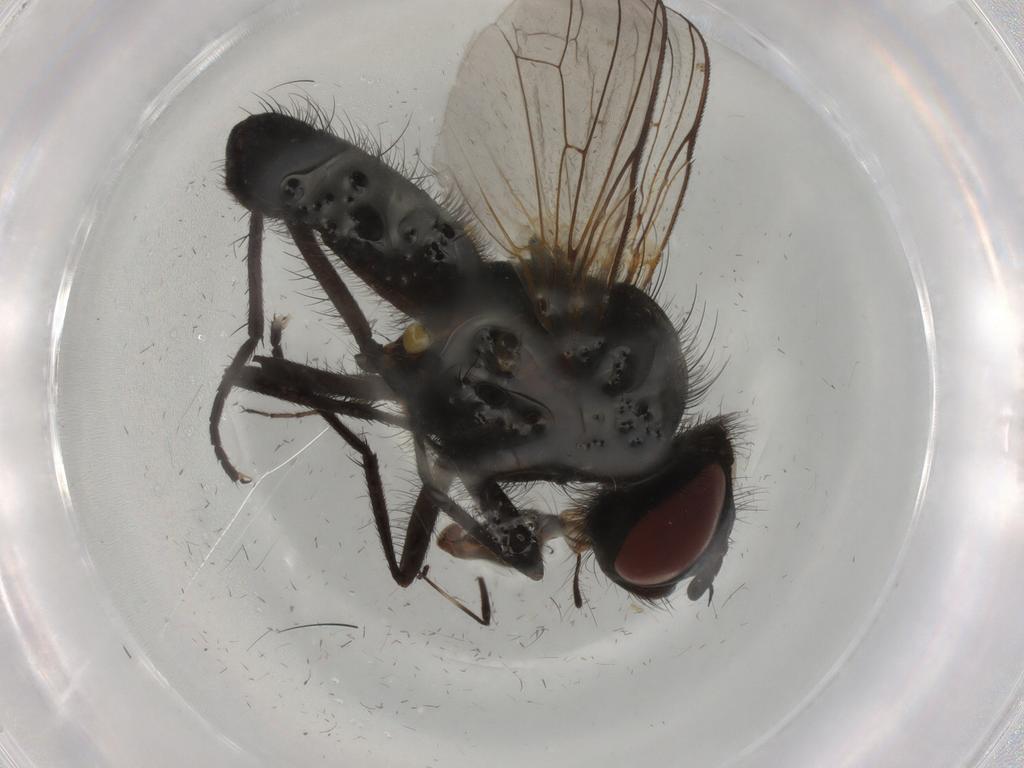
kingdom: Animalia
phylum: Arthropoda
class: Insecta
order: Diptera
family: Anthomyiidae
